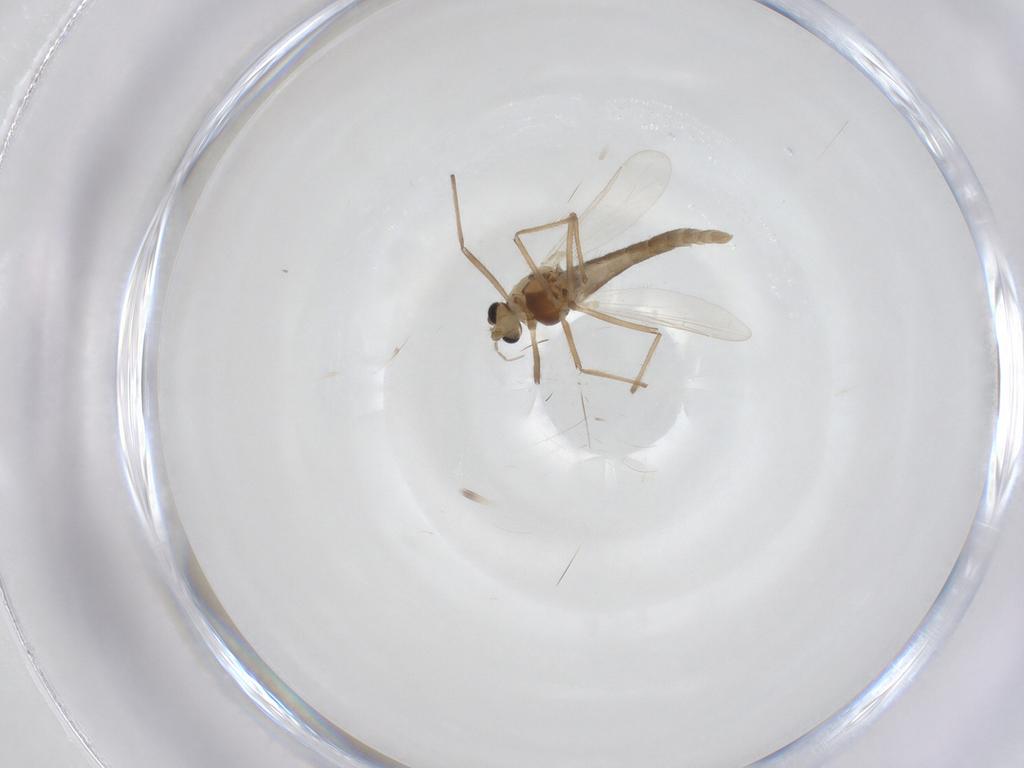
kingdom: Animalia
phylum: Arthropoda
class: Insecta
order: Diptera
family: Chironomidae
